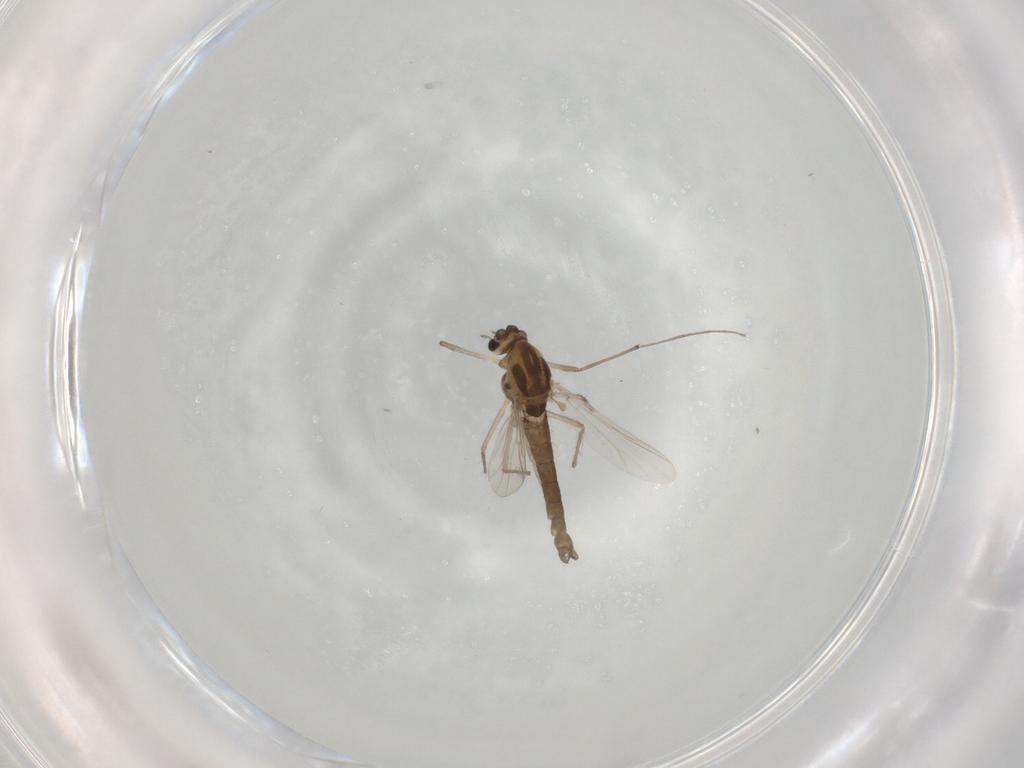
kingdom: Animalia
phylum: Arthropoda
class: Insecta
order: Diptera
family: Chironomidae
